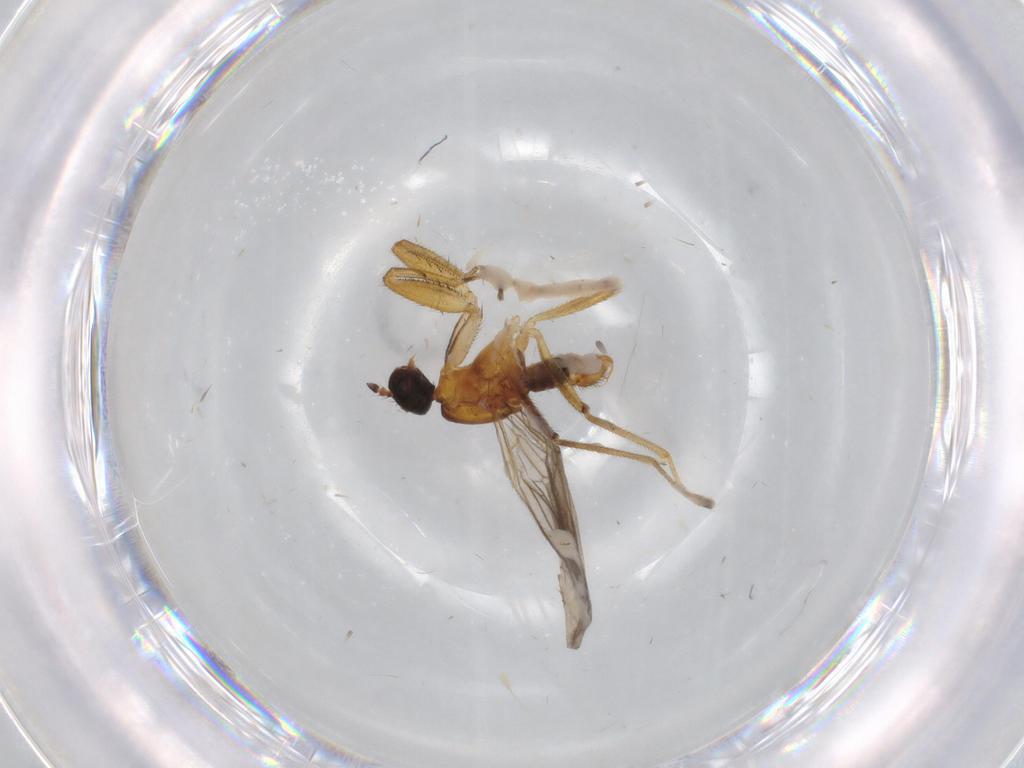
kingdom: Animalia
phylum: Arthropoda
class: Insecta
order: Diptera
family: Empididae
